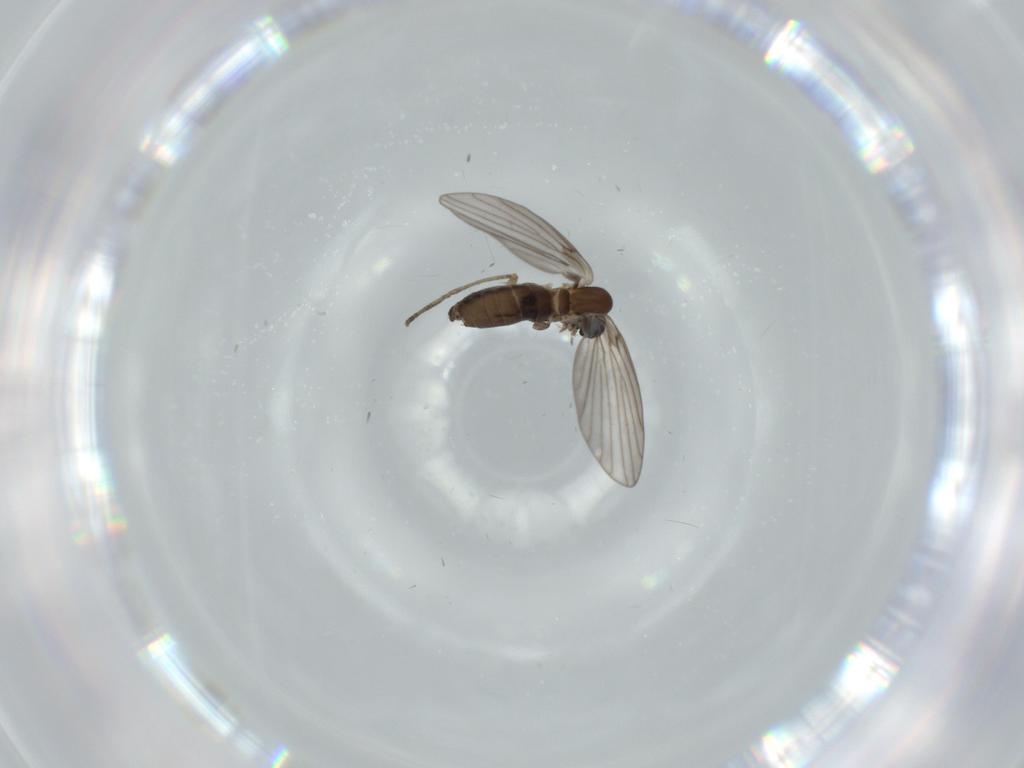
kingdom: Animalia
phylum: Arthropoda
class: Insecta
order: Diptera
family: Psychodidae
